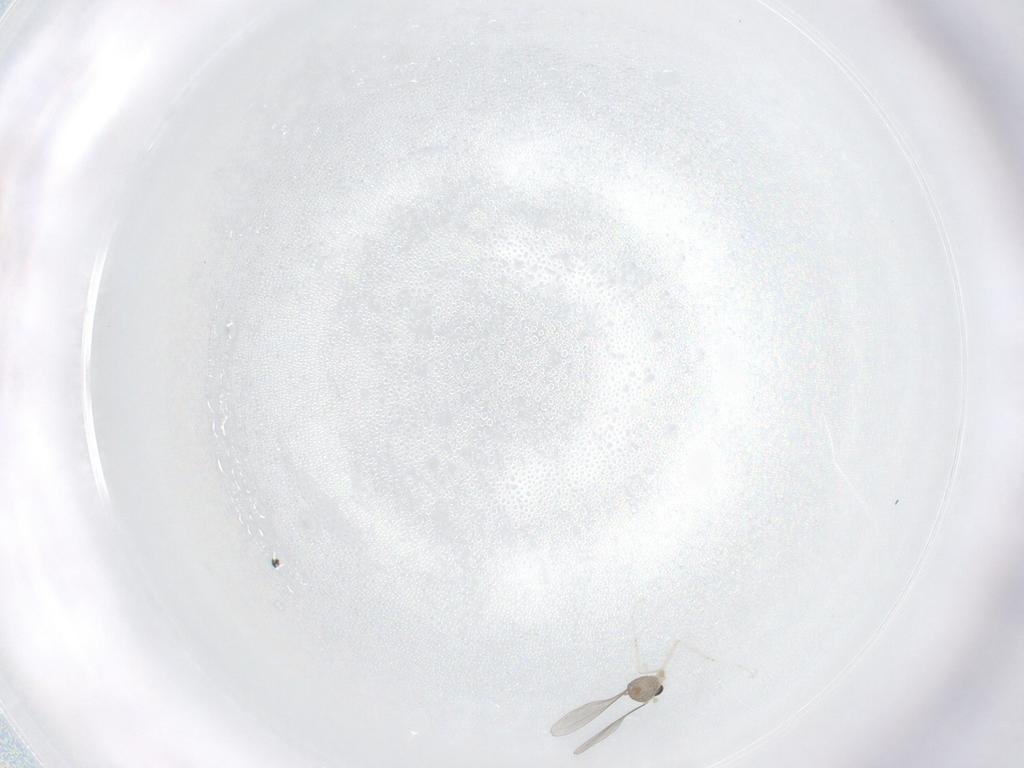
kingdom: Animalia
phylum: Arthropoda
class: Insecta
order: Diptera
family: Cecidomyiidae
